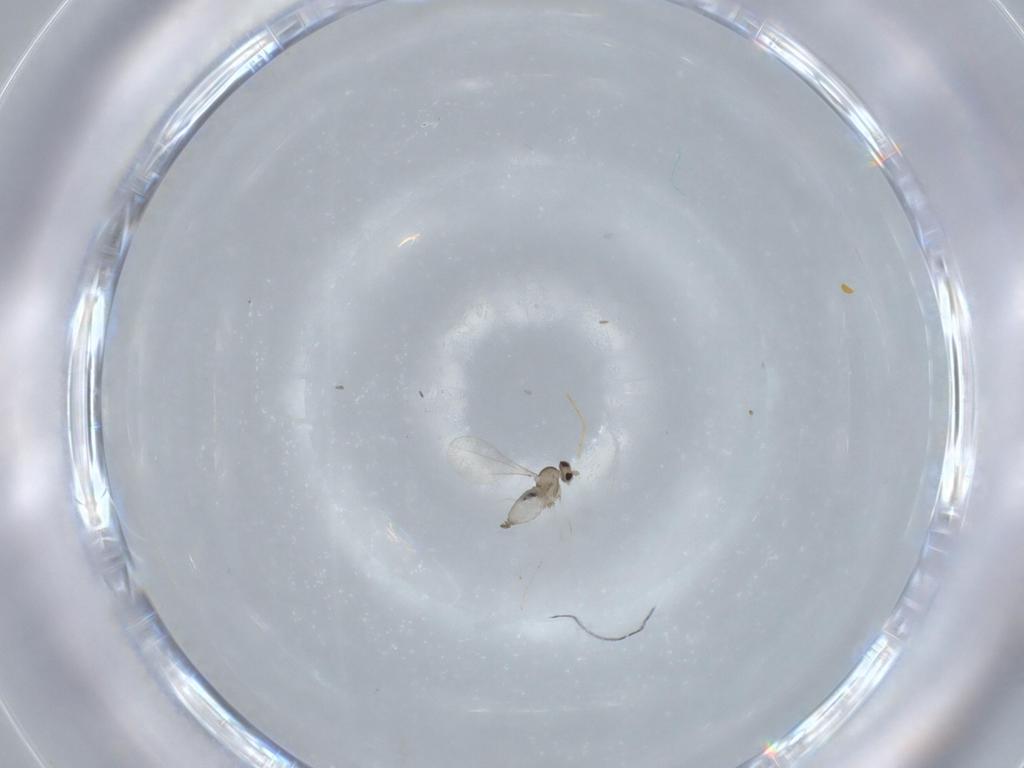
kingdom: Animalia
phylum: Arthropoda
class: Insecta
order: Diptera
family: Cecidomyiidae
